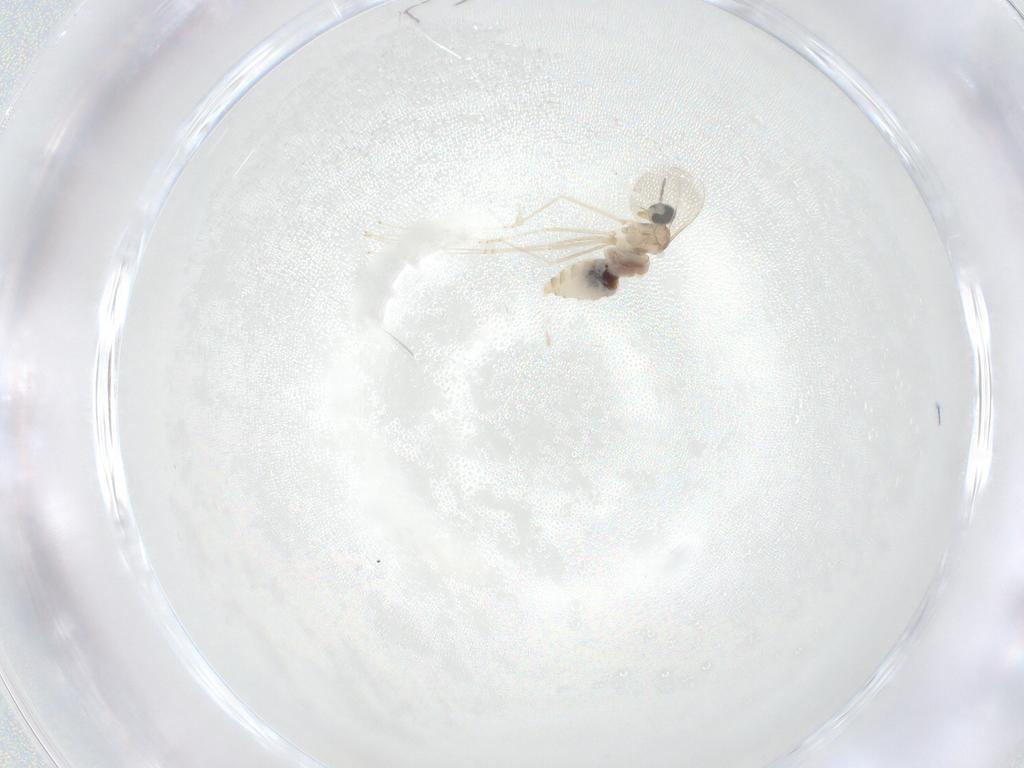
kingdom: Animalia
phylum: Arthropoda
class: Insecta
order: Diptera
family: Cecidomyiidae
